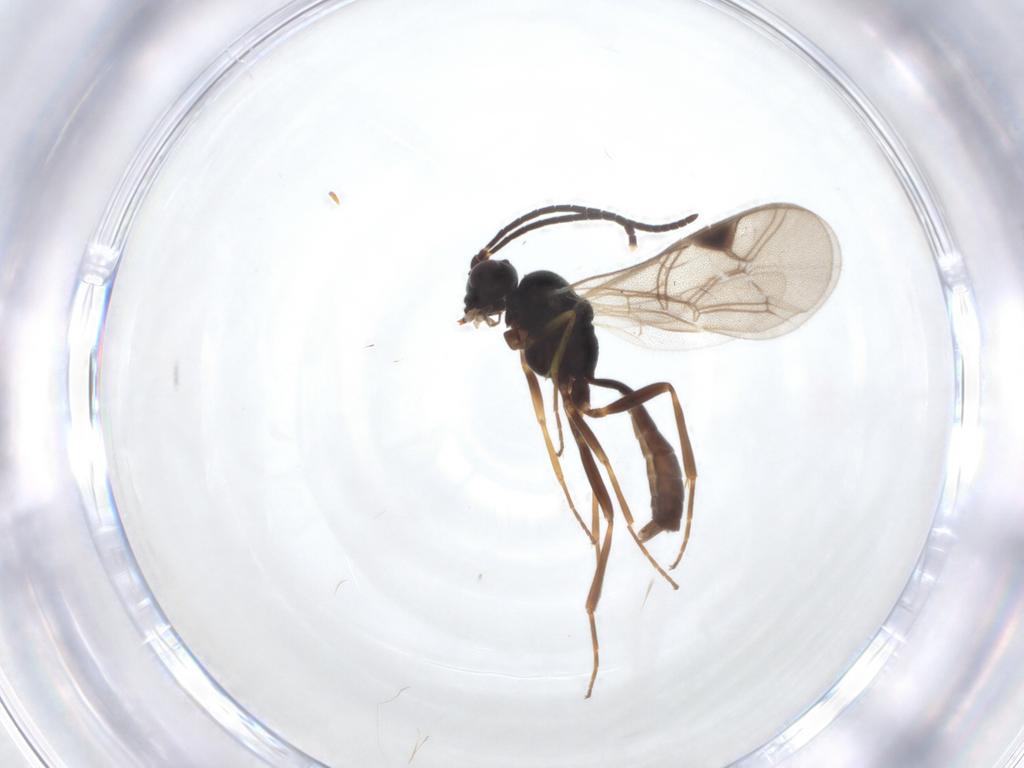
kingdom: Animalia
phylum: Arthropoda
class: Insecta
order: Hymenoptera
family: Ichneumonidae
